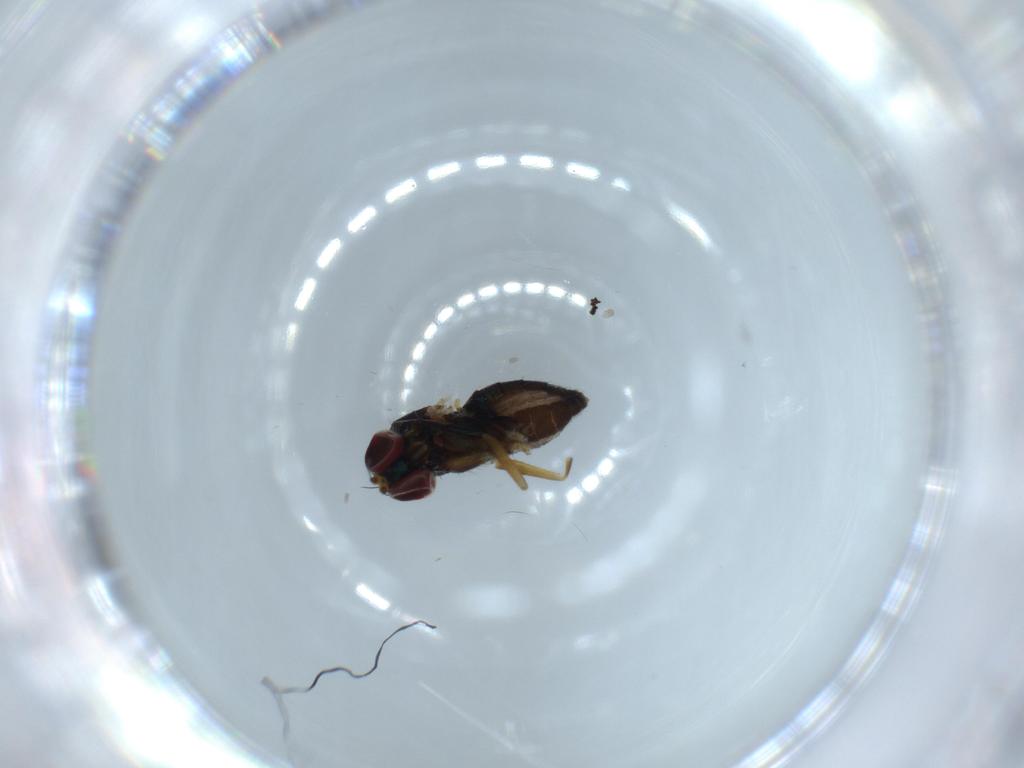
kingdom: Animalia
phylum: Arthropoda
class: Insecta
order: Diptera
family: Dolichopodidae
